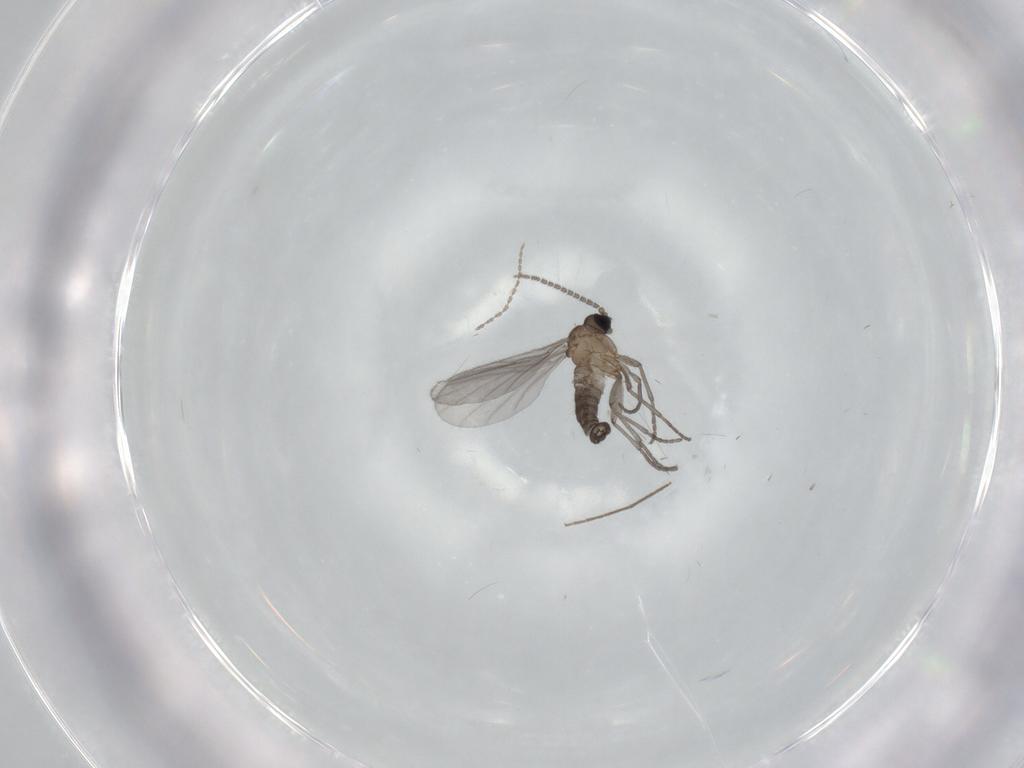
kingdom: Animalia
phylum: Arthropoda
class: Insecta
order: Diptera
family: Sciaridae
